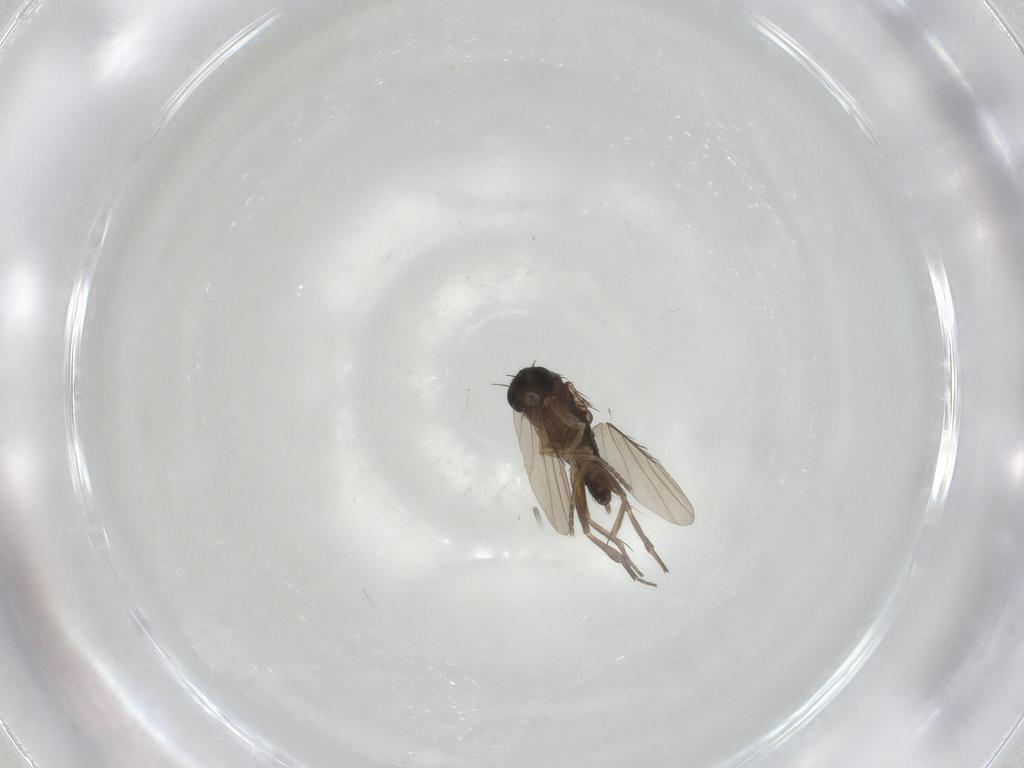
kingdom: Animalia
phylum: Arthropoda
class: Insecta
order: Diptera
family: Phoridae
